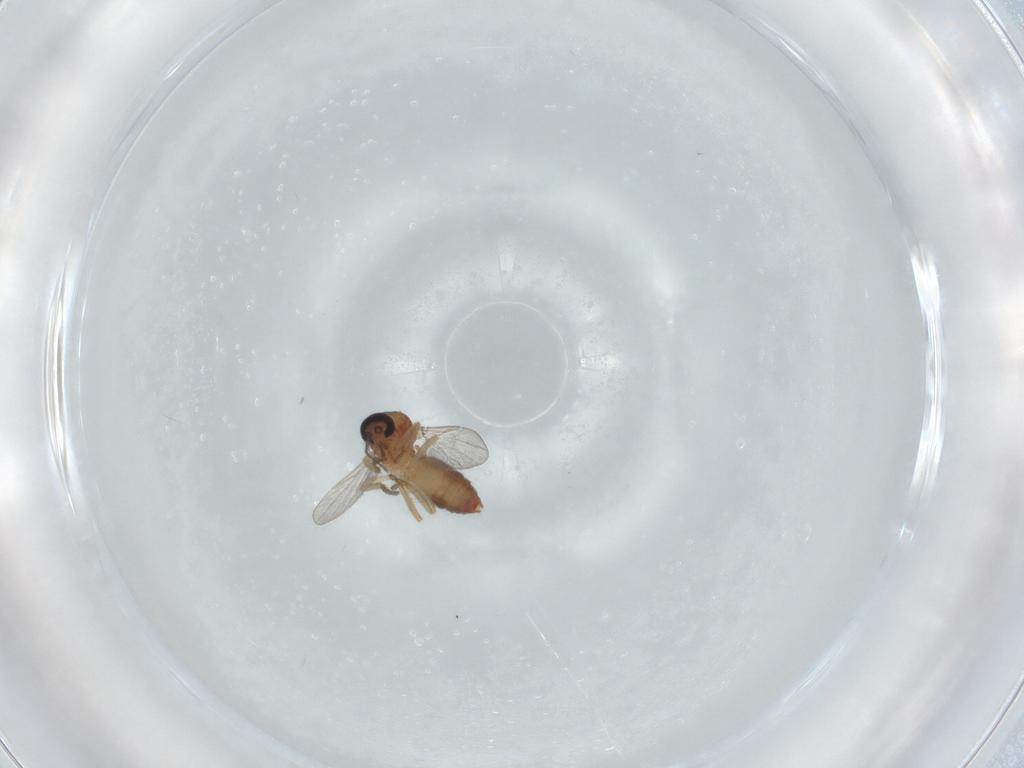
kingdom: Animalia
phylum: Arthropoda
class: Insecta
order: Diptera
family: Ceratopogonidae
